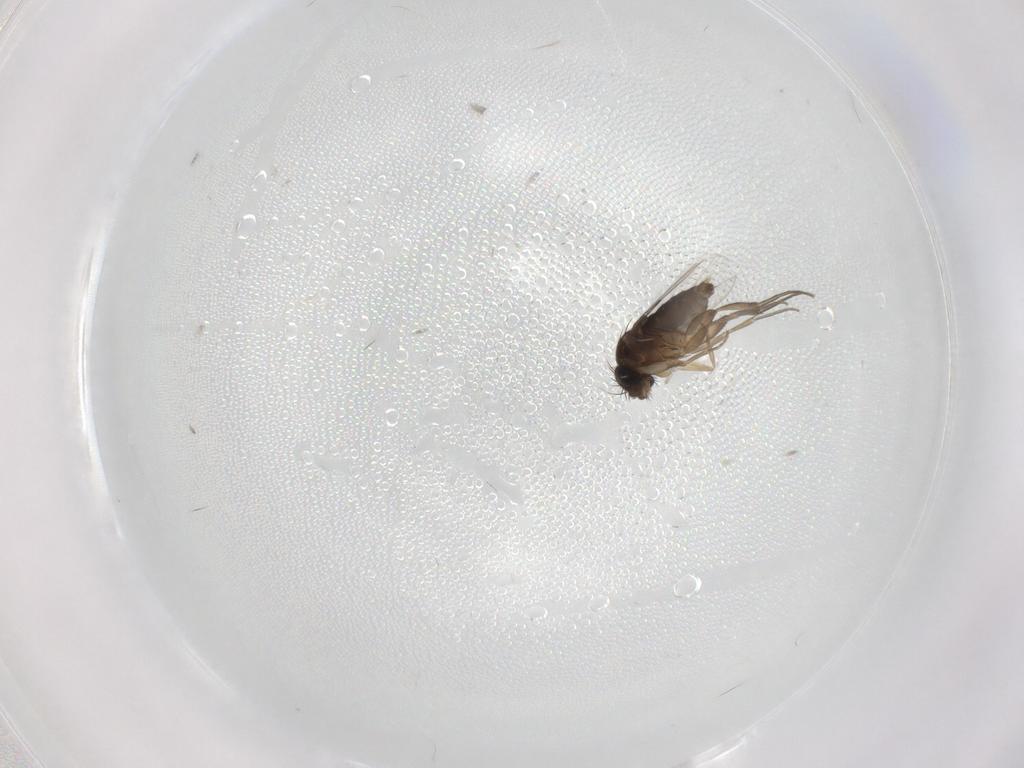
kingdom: Animalia
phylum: Arthropoda
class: Insecta
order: Diptera
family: Phoridae
